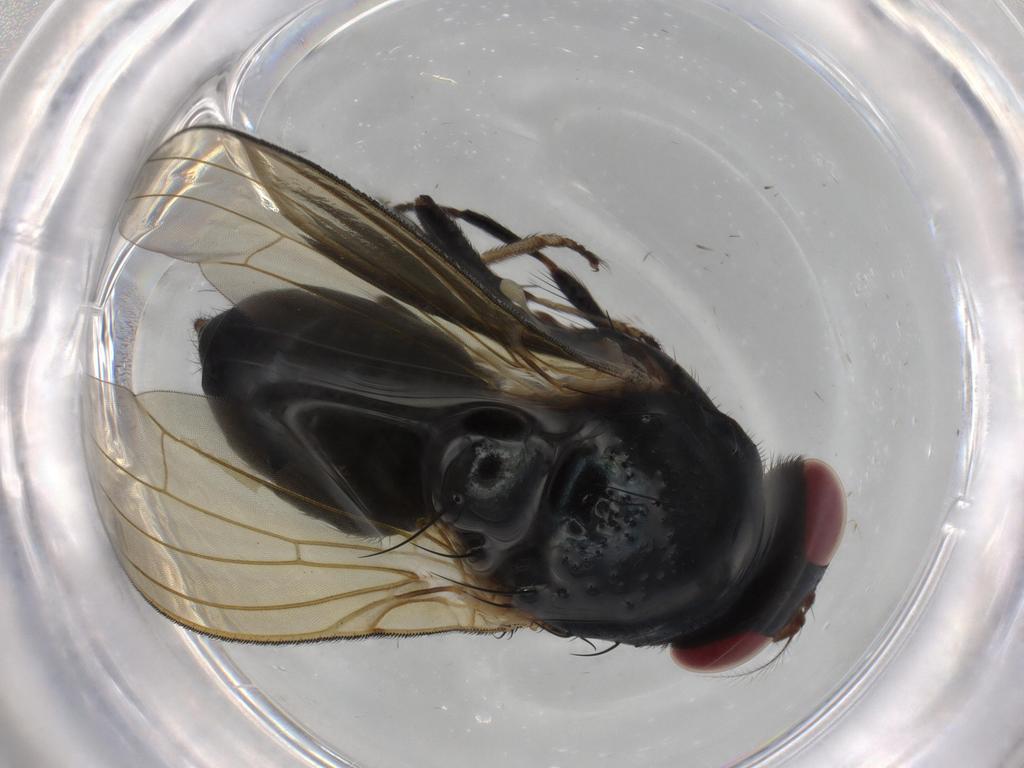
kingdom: Animalia
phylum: Arthropoda
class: Insecta
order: Diptera
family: Lauxaniidae
